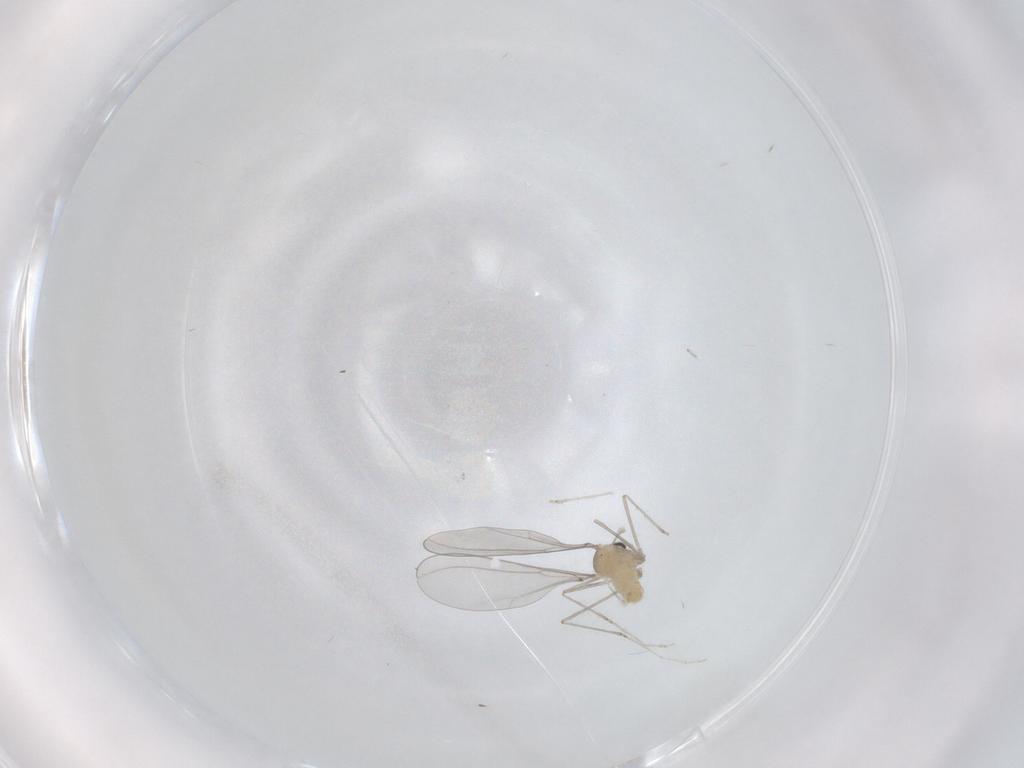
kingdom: Animalia
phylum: Arthropoda
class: Insecta
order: Diptera
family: Cecidomyiidae
